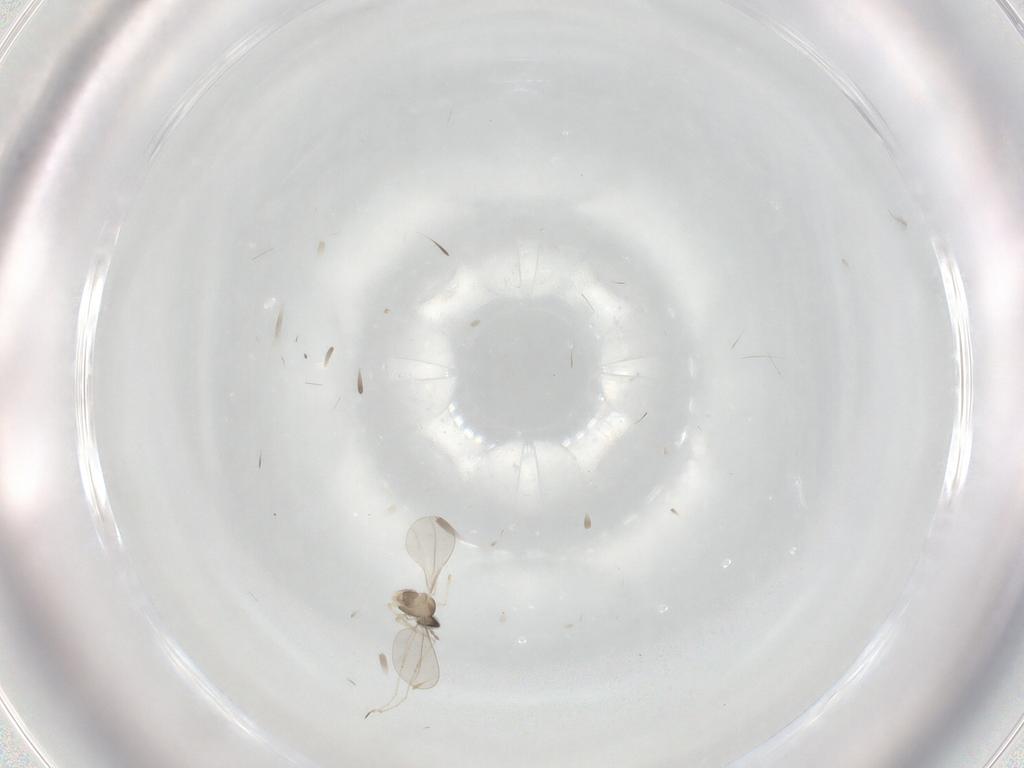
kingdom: Animalia
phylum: Arthropoda
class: Insecta
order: Diptera
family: Cecidomyiidae
